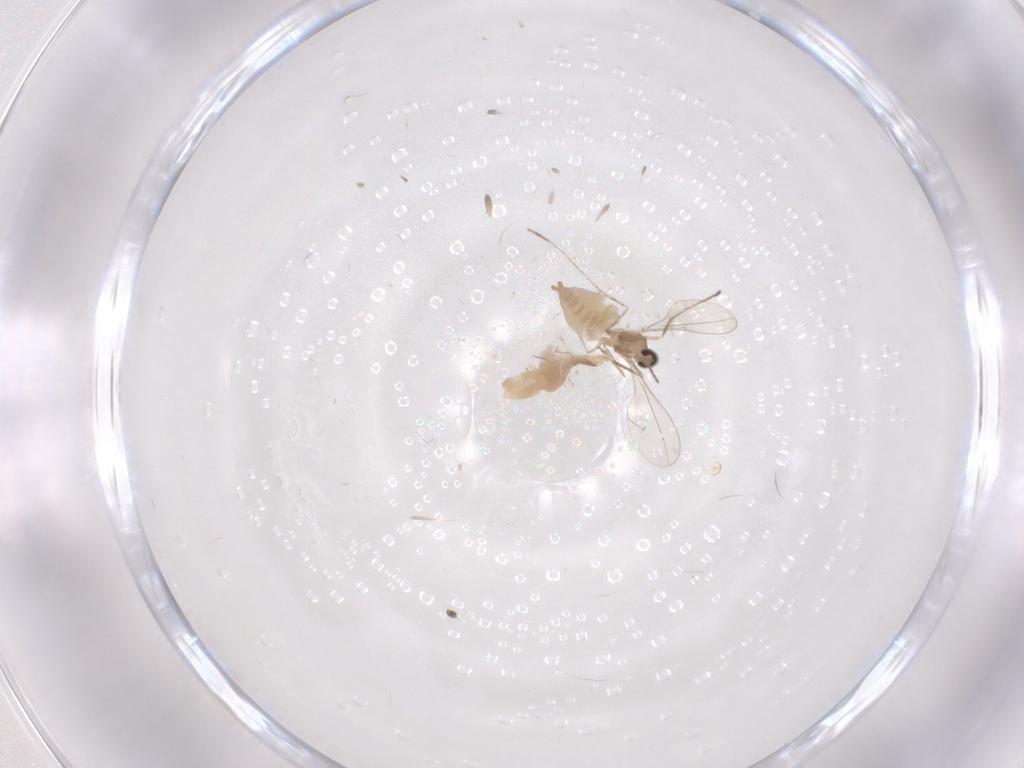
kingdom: Animalia
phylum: Arthropoda
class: Insecta
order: Diptera
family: Cecidomyiidae
